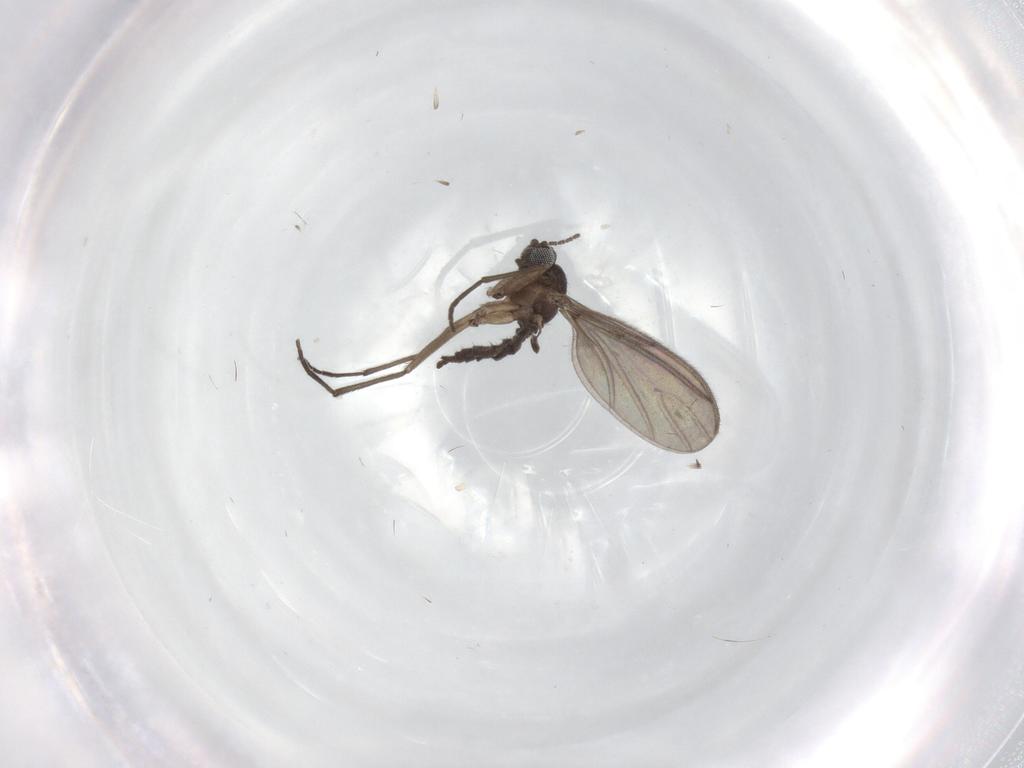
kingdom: Animalia
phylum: Arthropoda
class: Insecta
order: Diptera
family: Sciaridae
